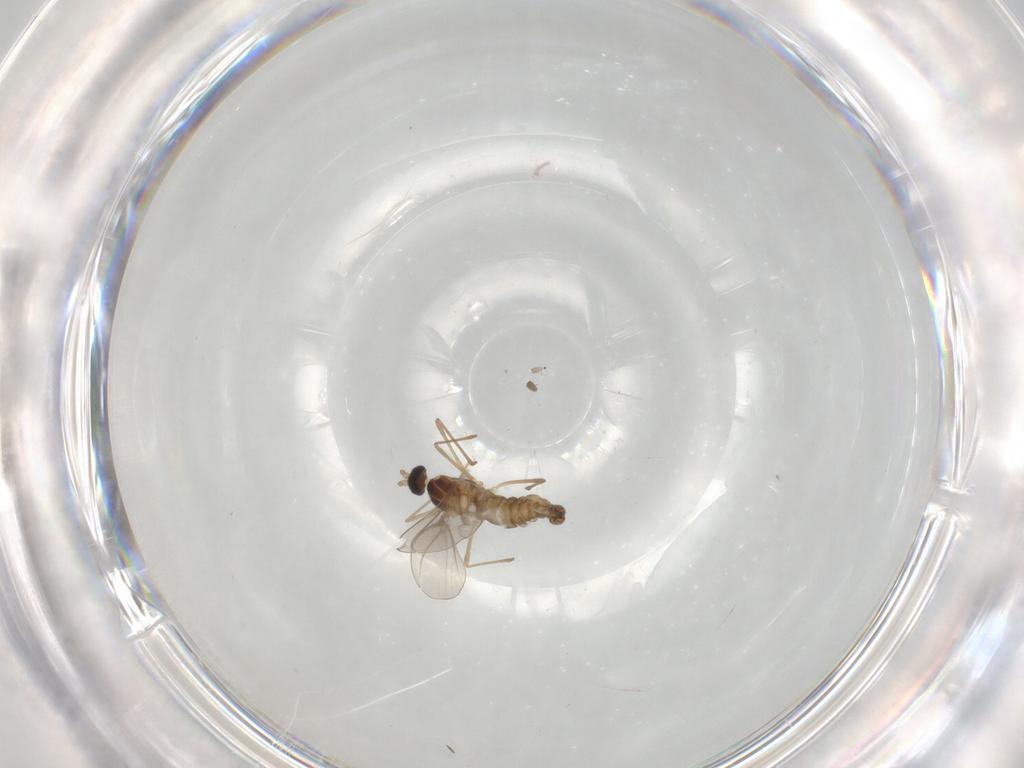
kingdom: Animalia
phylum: Arthropoda
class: Insecta
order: Diptera
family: Cecidomyiidae
